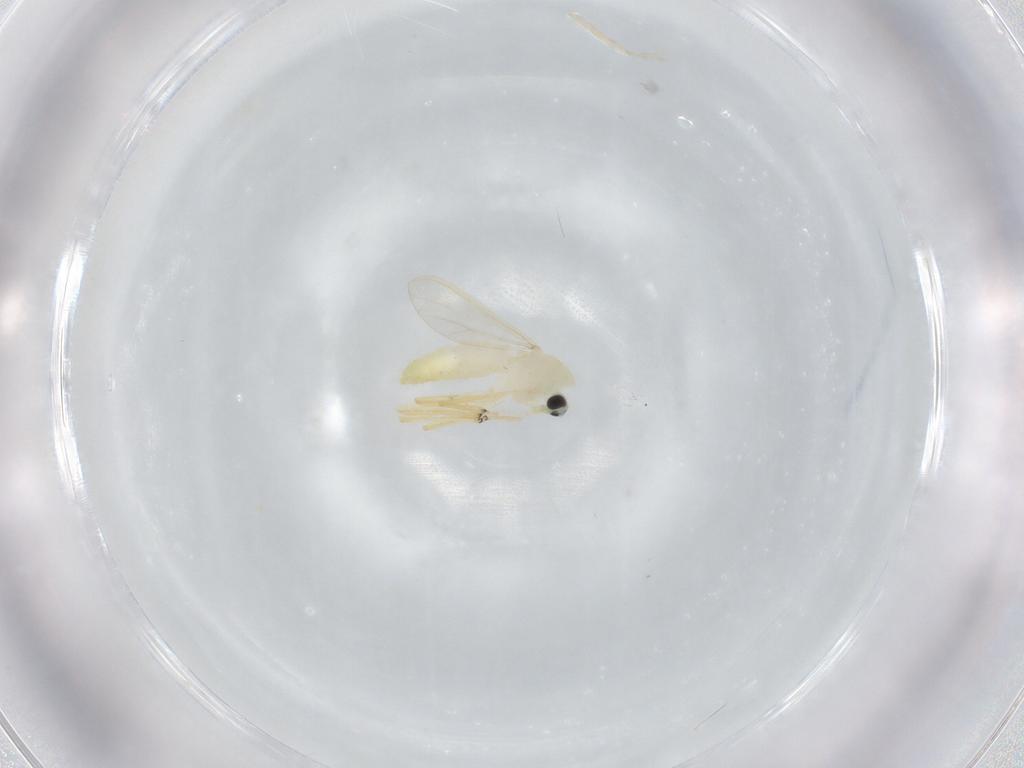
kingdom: Animalia
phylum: Arthropoda
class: Insecta
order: Diptera
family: Chironomidae
